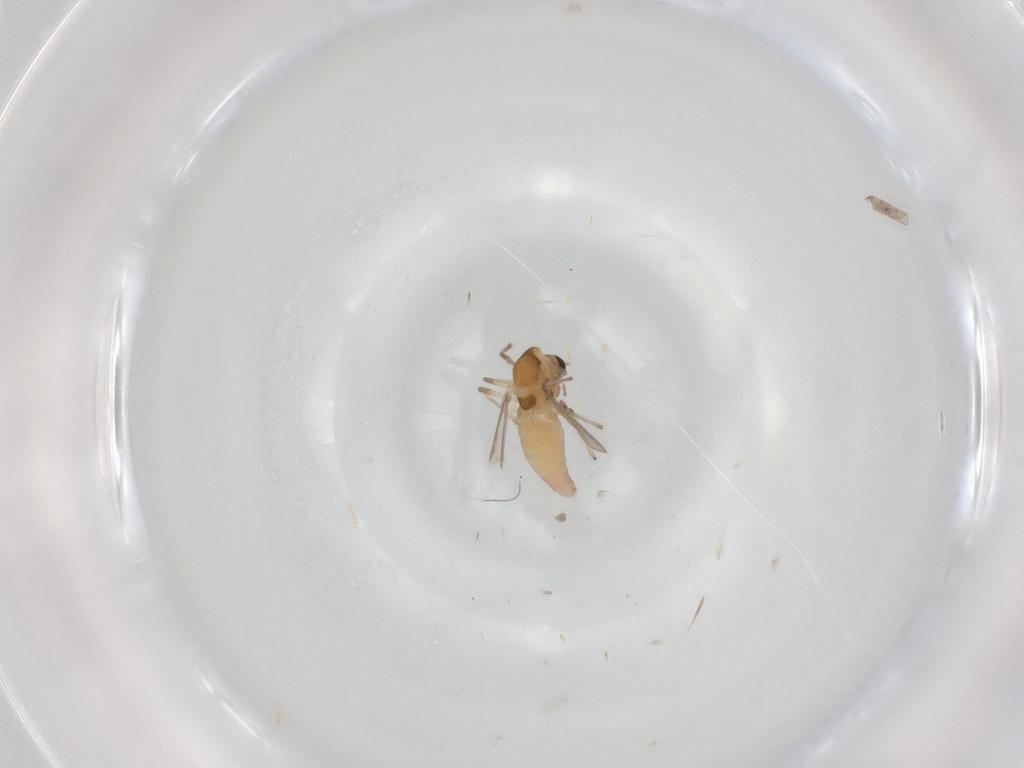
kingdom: Animalia
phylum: Arthropoda
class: Insecta
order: Diptera
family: Chironomidae
